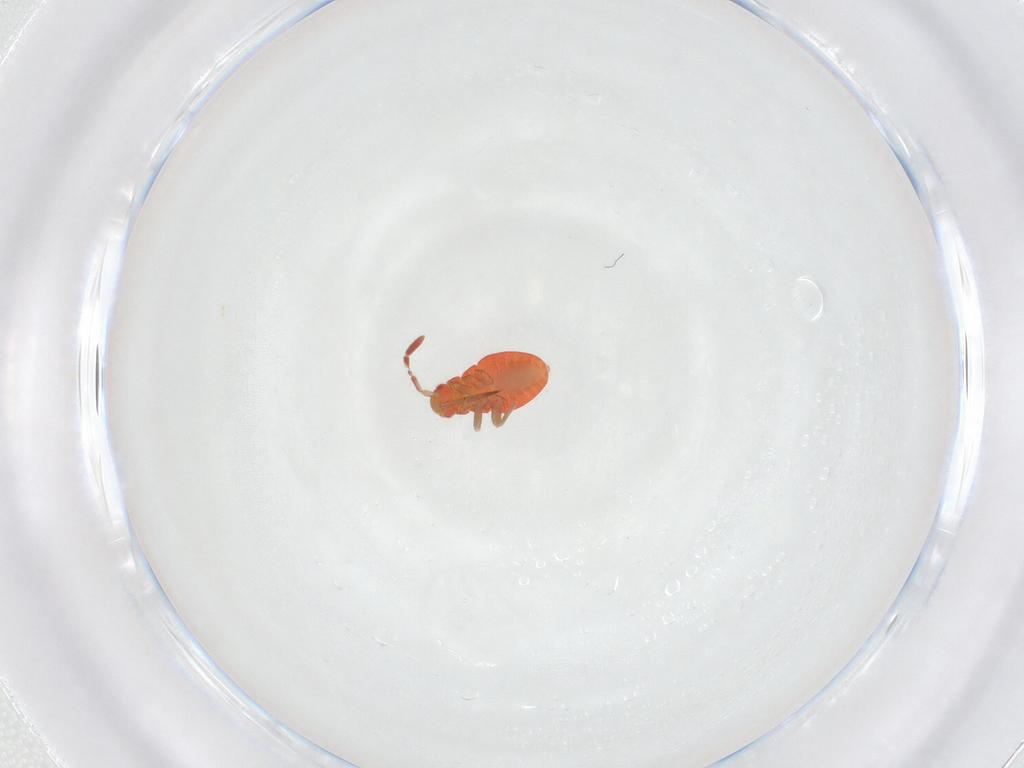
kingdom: Animalia
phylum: Arthropoda
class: Insecta
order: Hemiptera
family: Miridae
